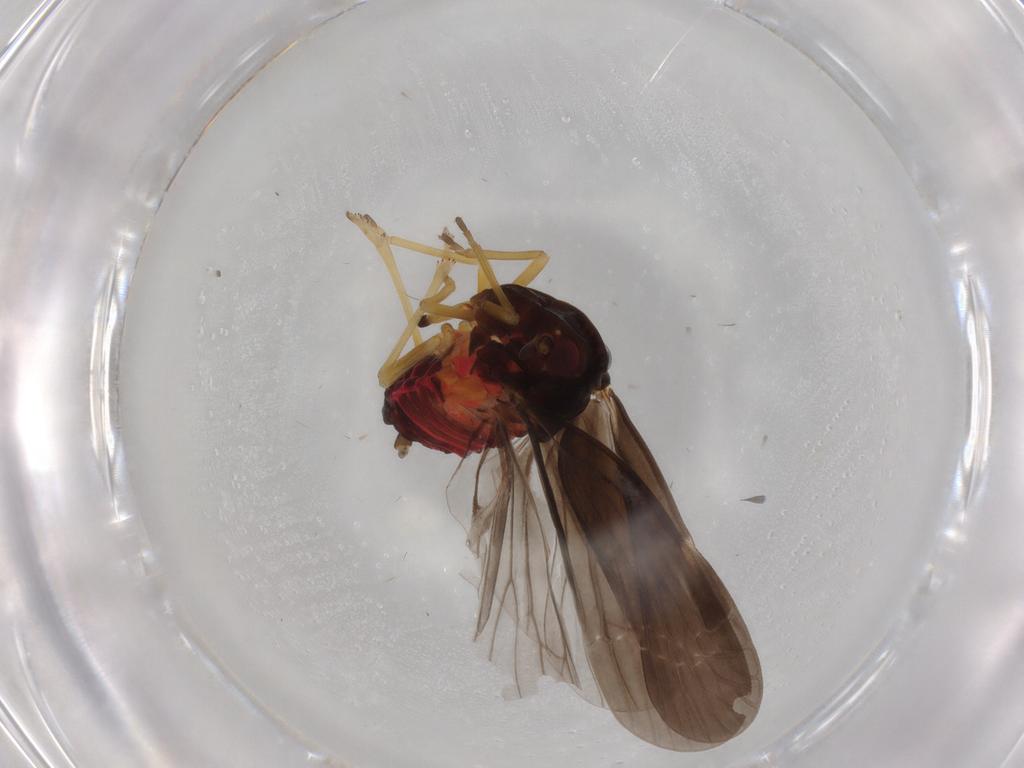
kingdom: Animalia
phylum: Arthropoda
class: Insecta
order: Hemiptera
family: Derbidae
